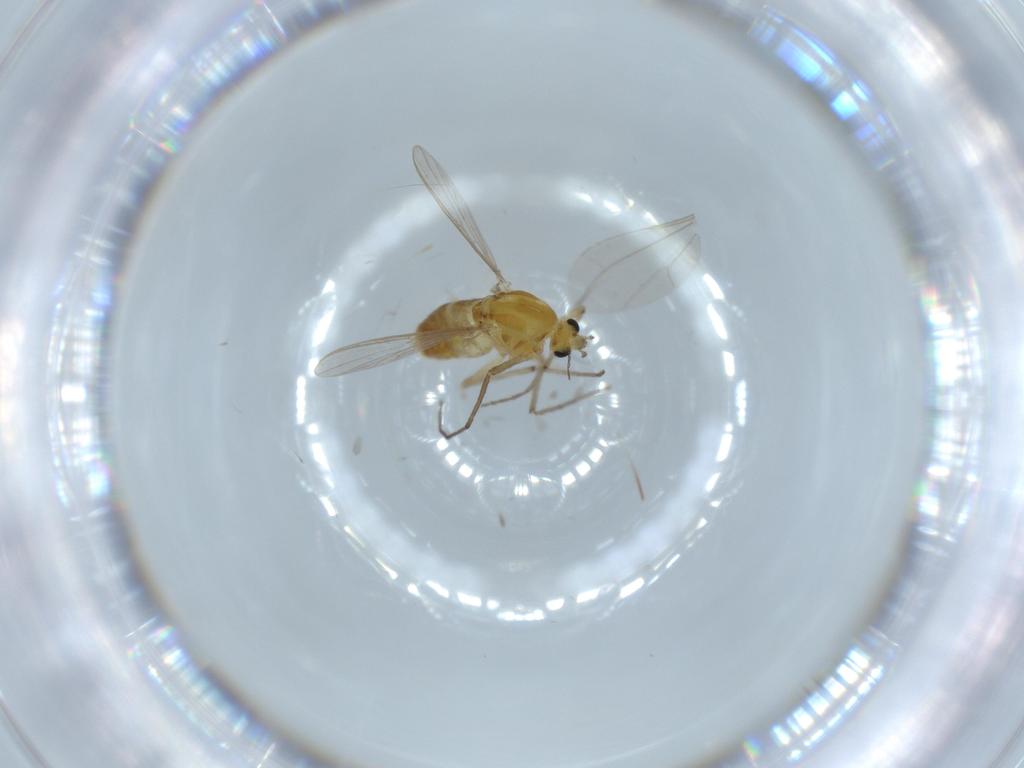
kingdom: Animalia
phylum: Arthropoda
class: Insecta
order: Diptera
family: Chironomidae
